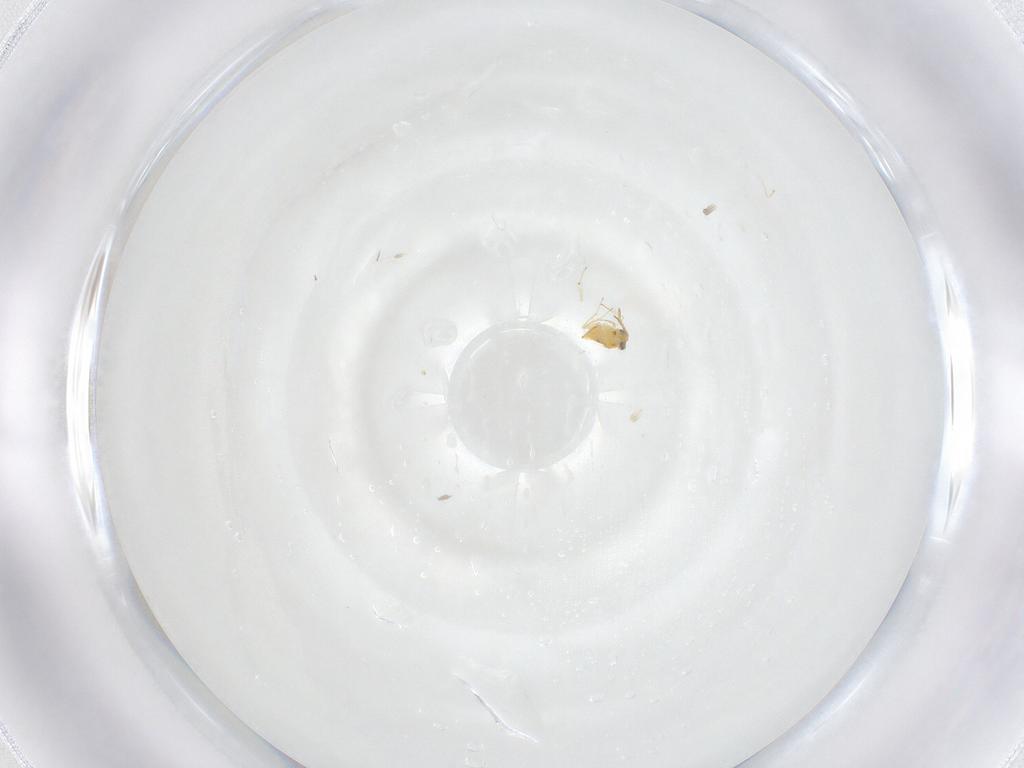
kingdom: Animalia
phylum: Arthropoda
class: Insecta
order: Hymenoptera
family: Aphelinidae
